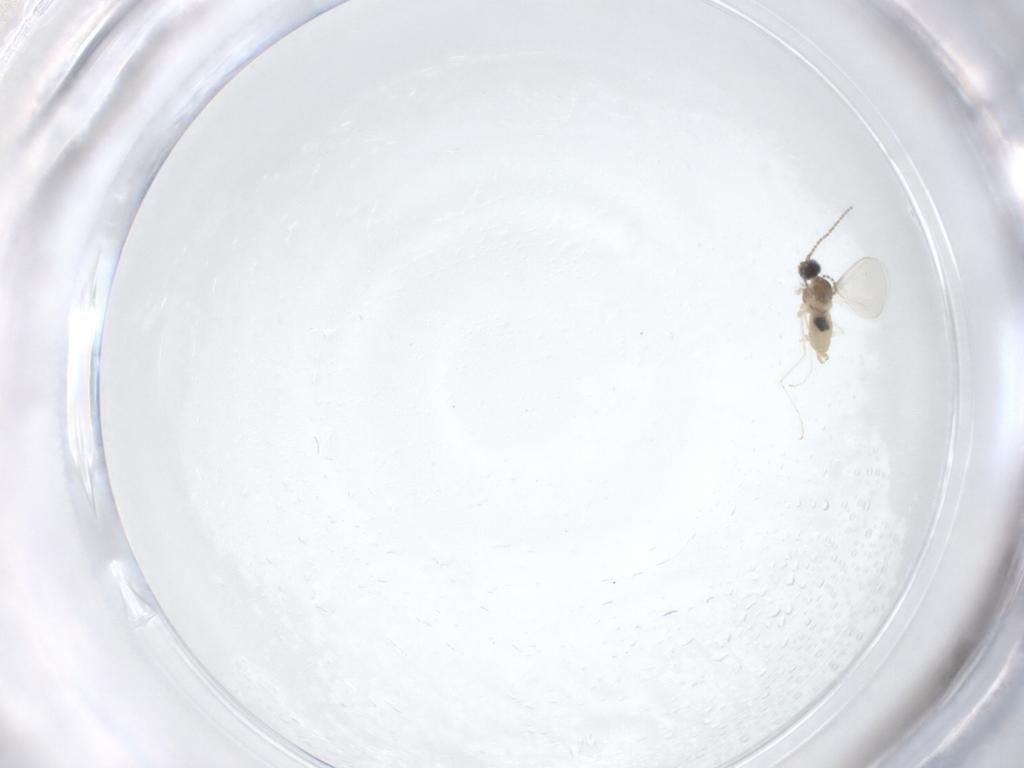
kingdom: Animalia
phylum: Arthropoda
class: Insecta
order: Diptera
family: Cecidomyiidae
